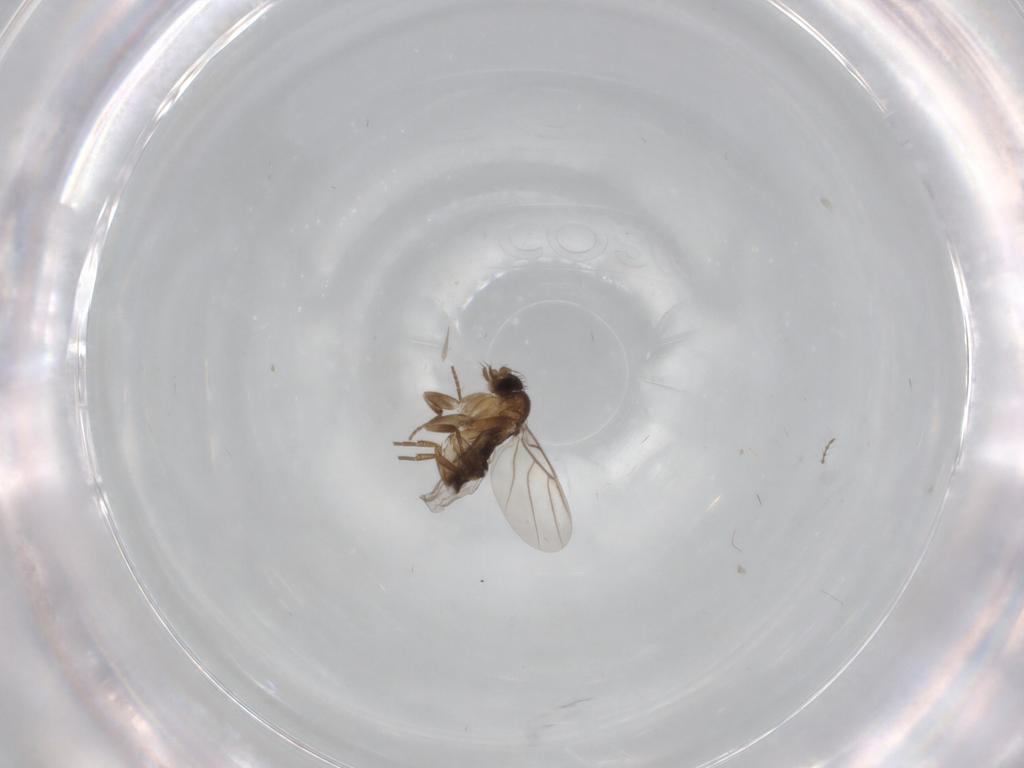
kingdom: Animalia
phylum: Arthropoda
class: Insecta
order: Diptera
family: Phoridae
